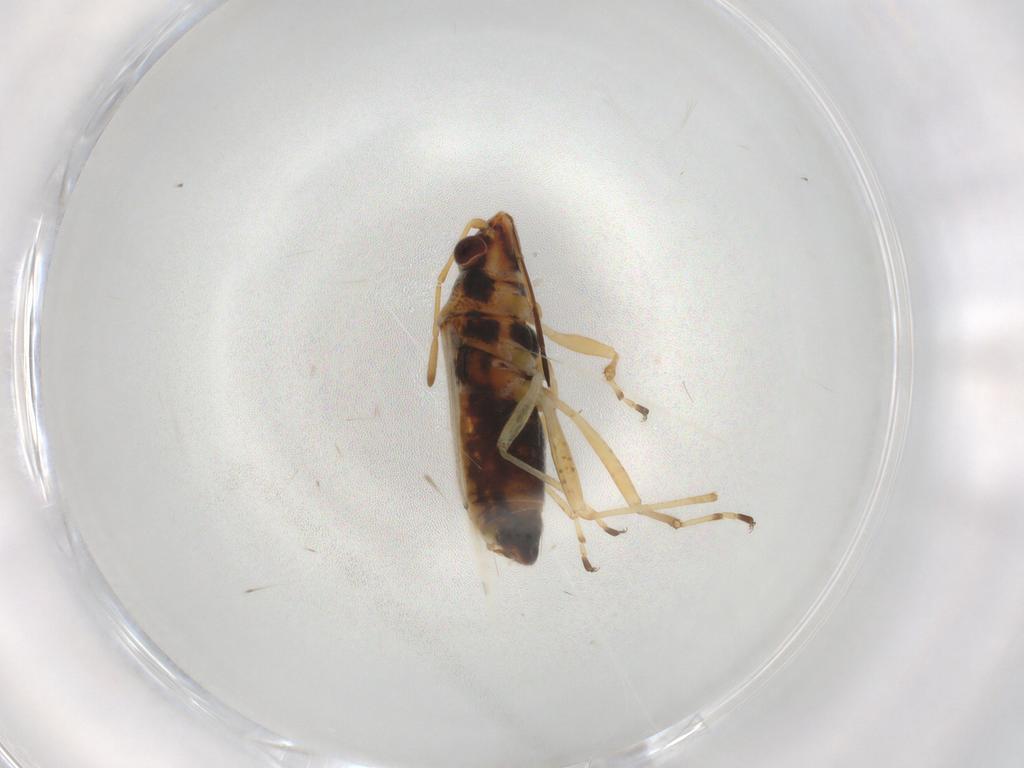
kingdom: Animalia
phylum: Arthropoda
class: Insecta
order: Hemiptera
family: Lygaeidae
